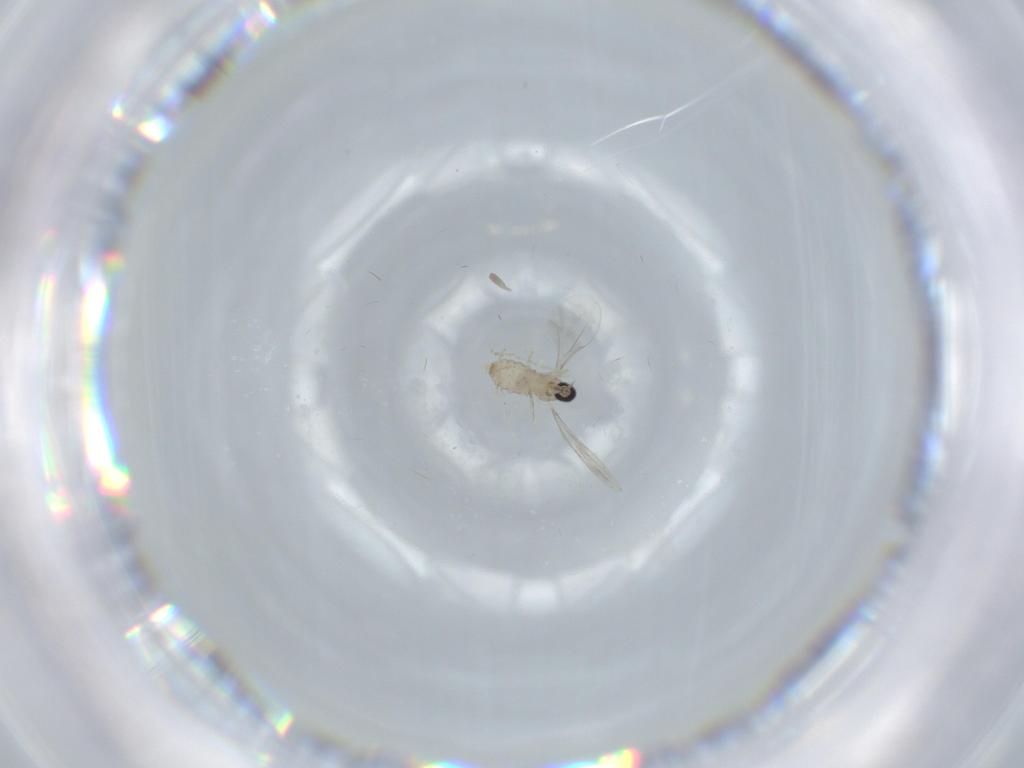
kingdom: Animalia
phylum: Arthropoda
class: Insecta
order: Diptera
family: Cecidomyiidae
